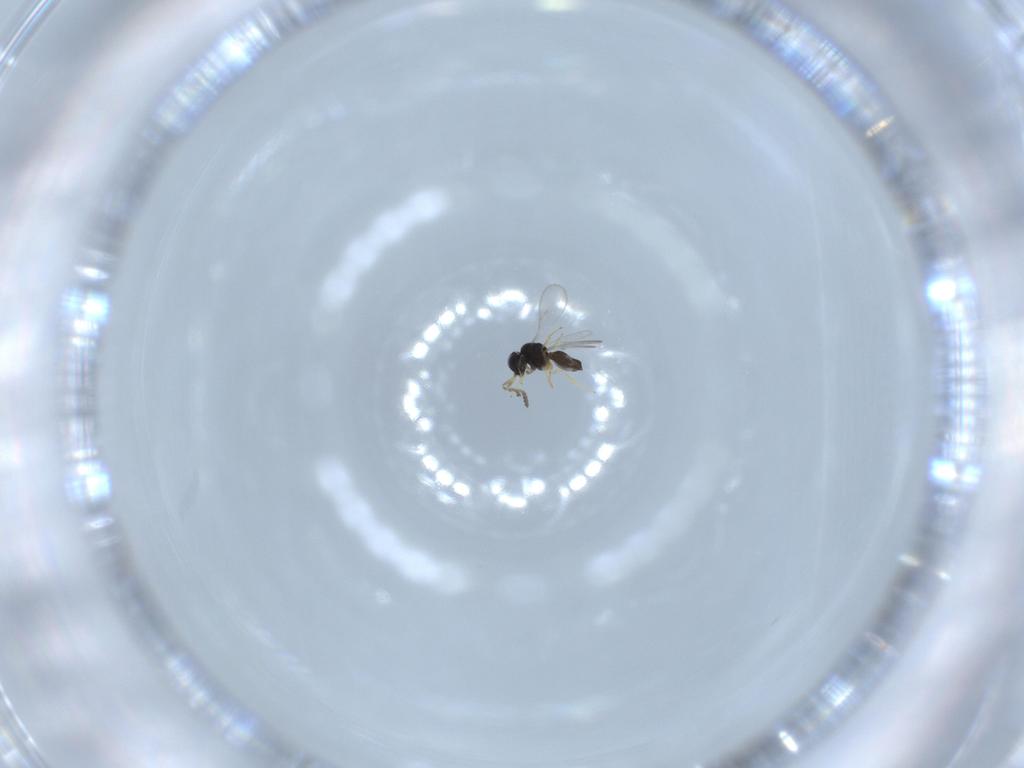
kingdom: Animalia
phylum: Arthropoda
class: Insecta
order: Hymenoptera
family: Scelionidae
